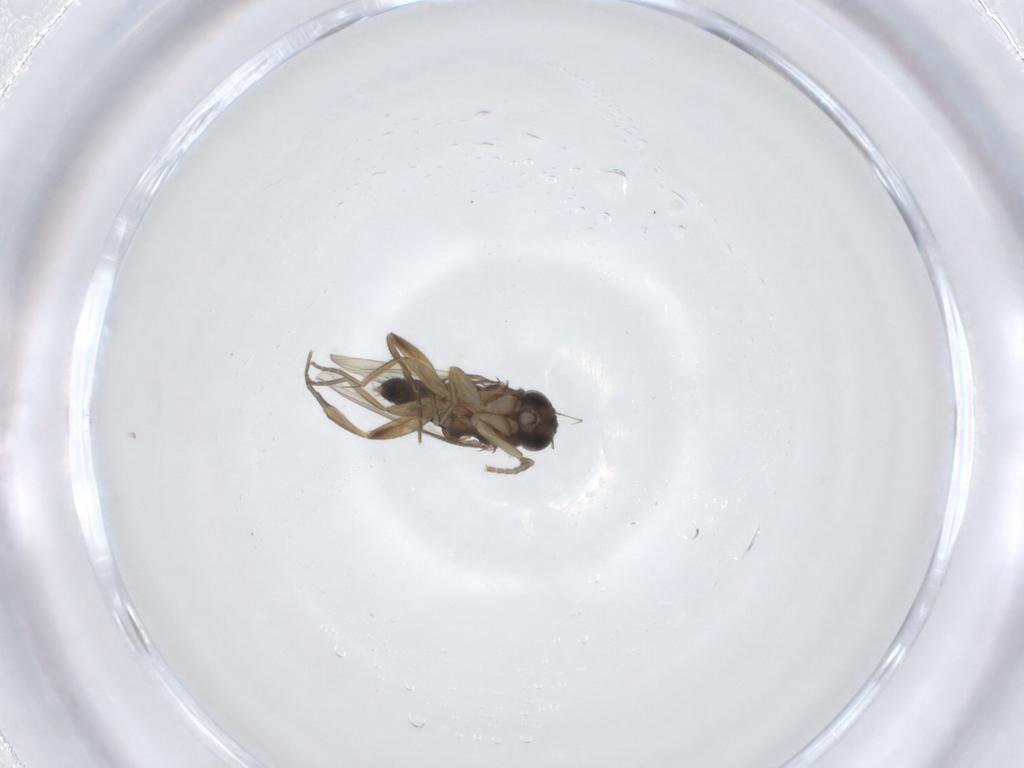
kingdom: Animalia
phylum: Arthropoda
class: Insecta
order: Diptera
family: Phoridae
